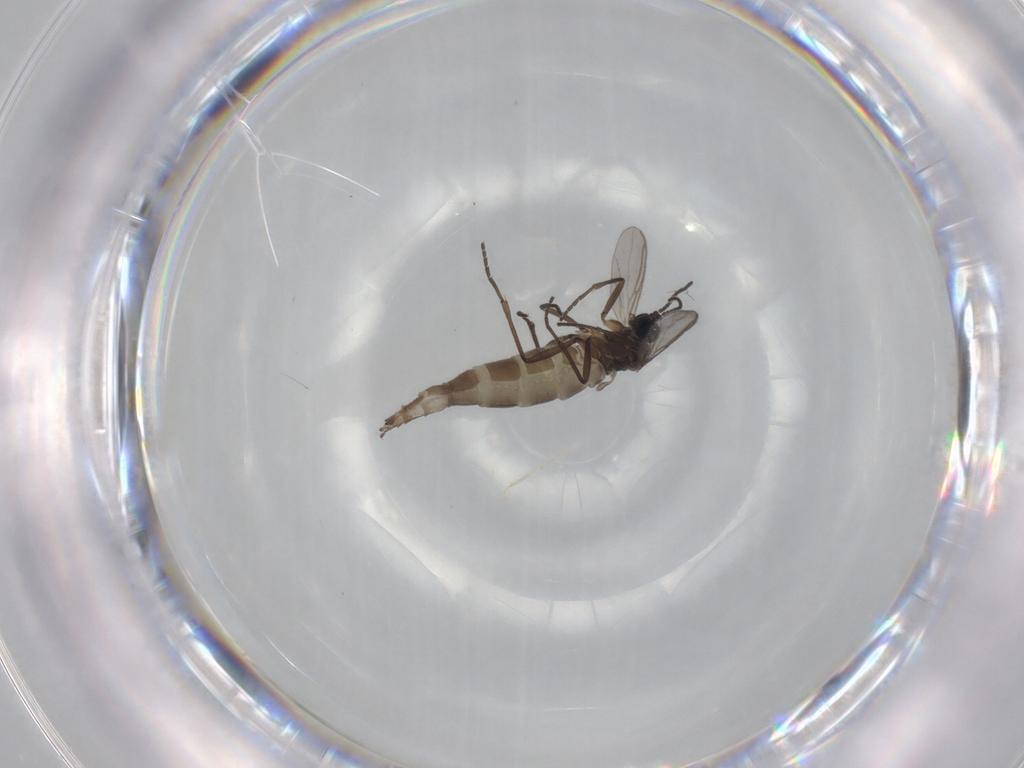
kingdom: Animalia
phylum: Arthropoda
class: Insecta
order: Diptera
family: Sciaridae
